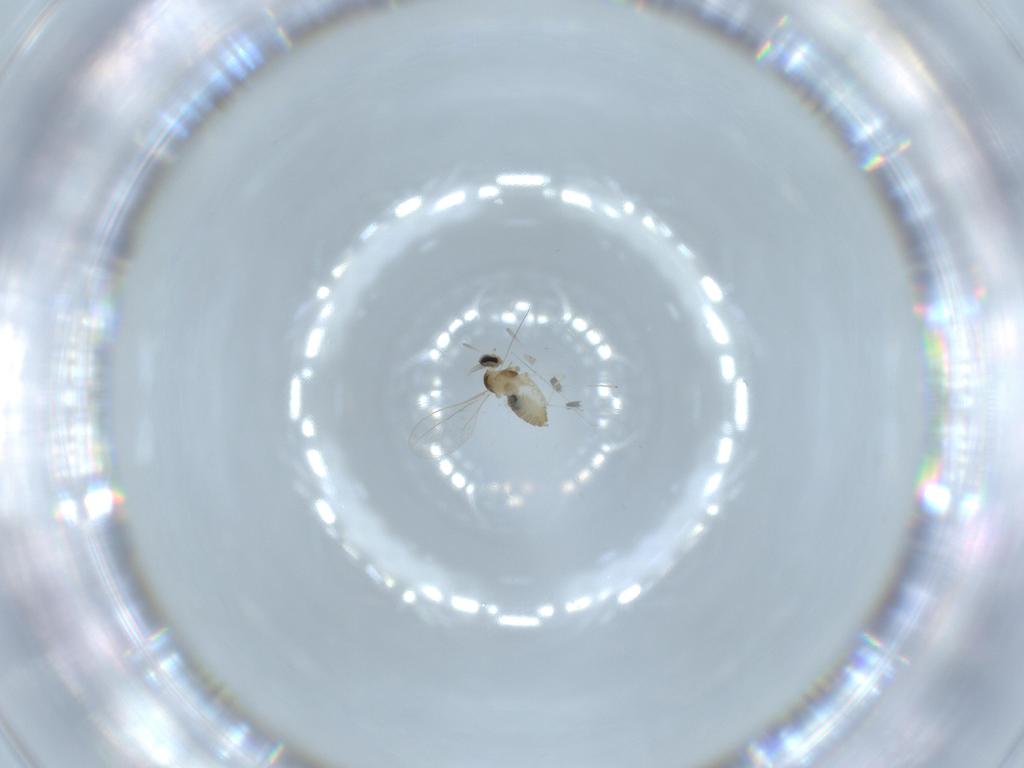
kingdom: Animalia
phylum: Arthropoda
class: Insecta
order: Diptera
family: Chironomidae
